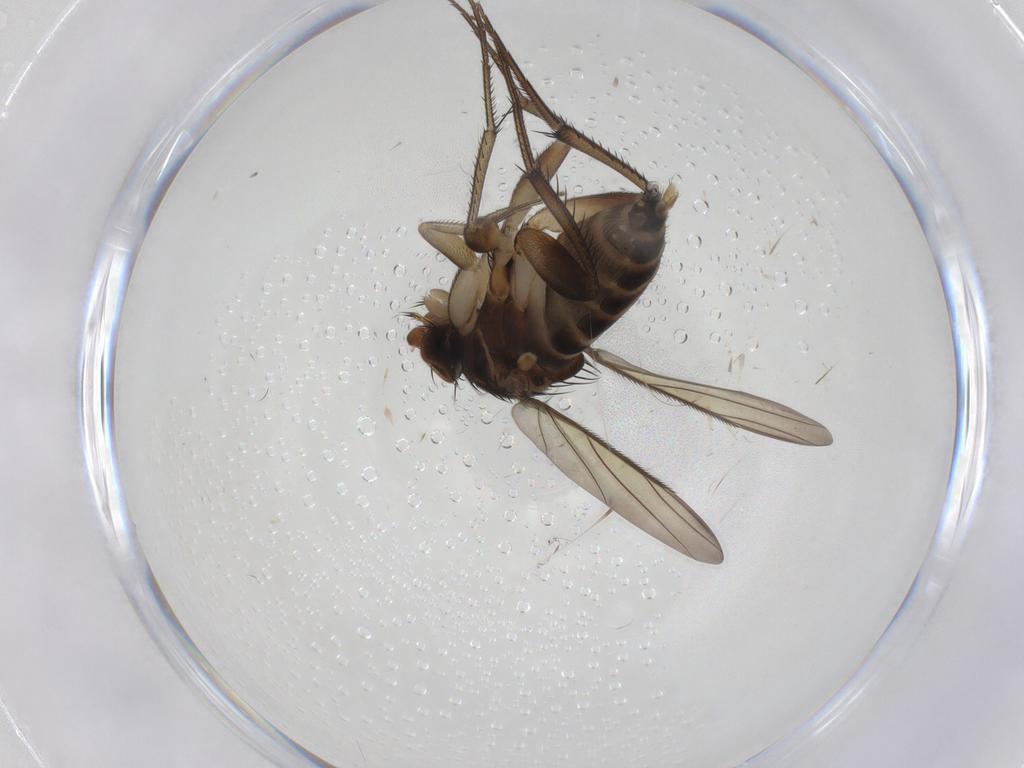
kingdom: Animalia
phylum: Arthropoda
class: Insecta
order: Diptera
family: Phoridae
